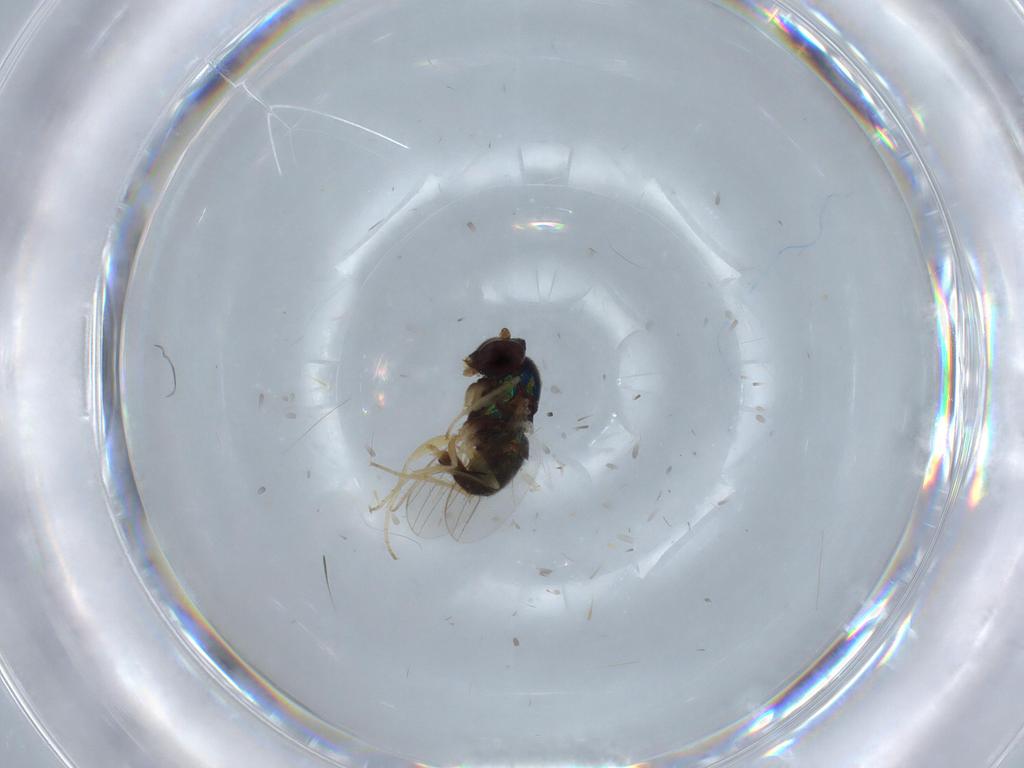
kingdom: Animalia
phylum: Arthropoda
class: Insecta
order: Diptera
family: Dolichopodidae
